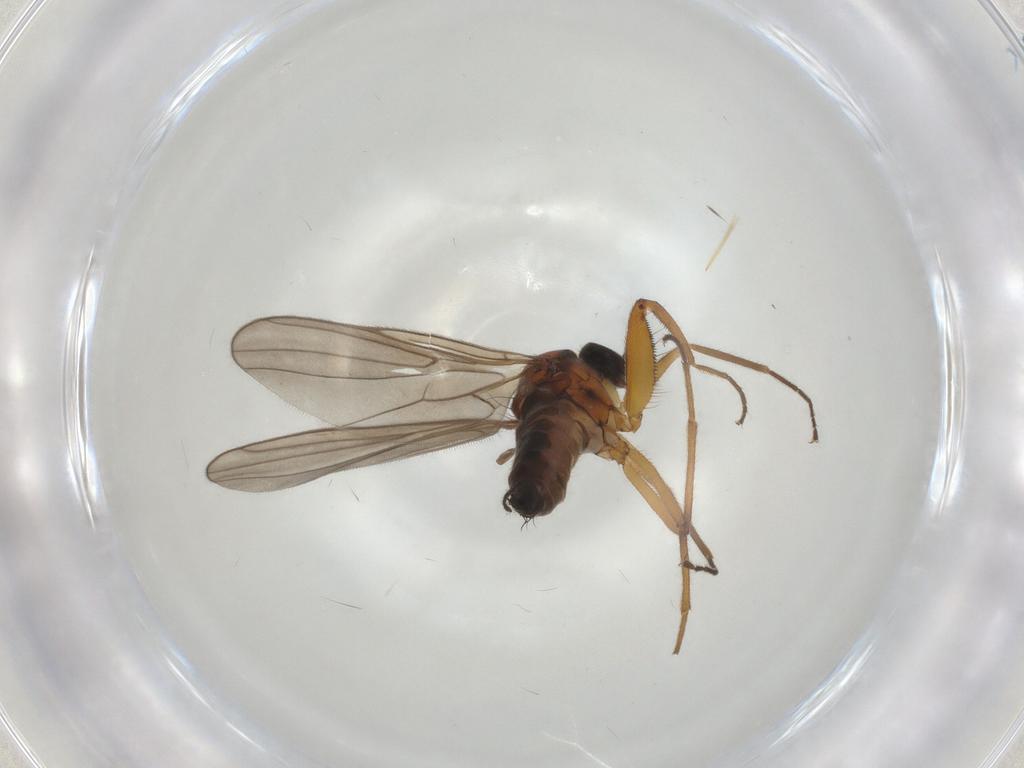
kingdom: Animalia
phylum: Arthropoda
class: Insecta
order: Diptera
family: Hybotidae
